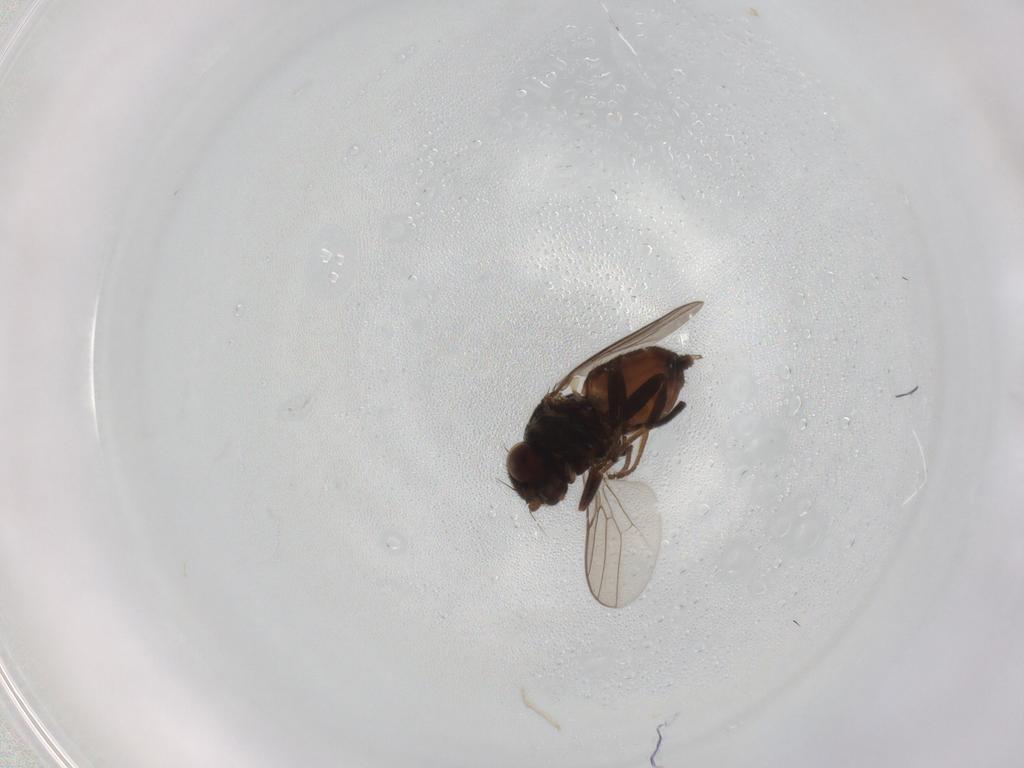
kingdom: Animalia
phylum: Arthropoda
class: Insecta
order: Diptera
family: Chloropidae
